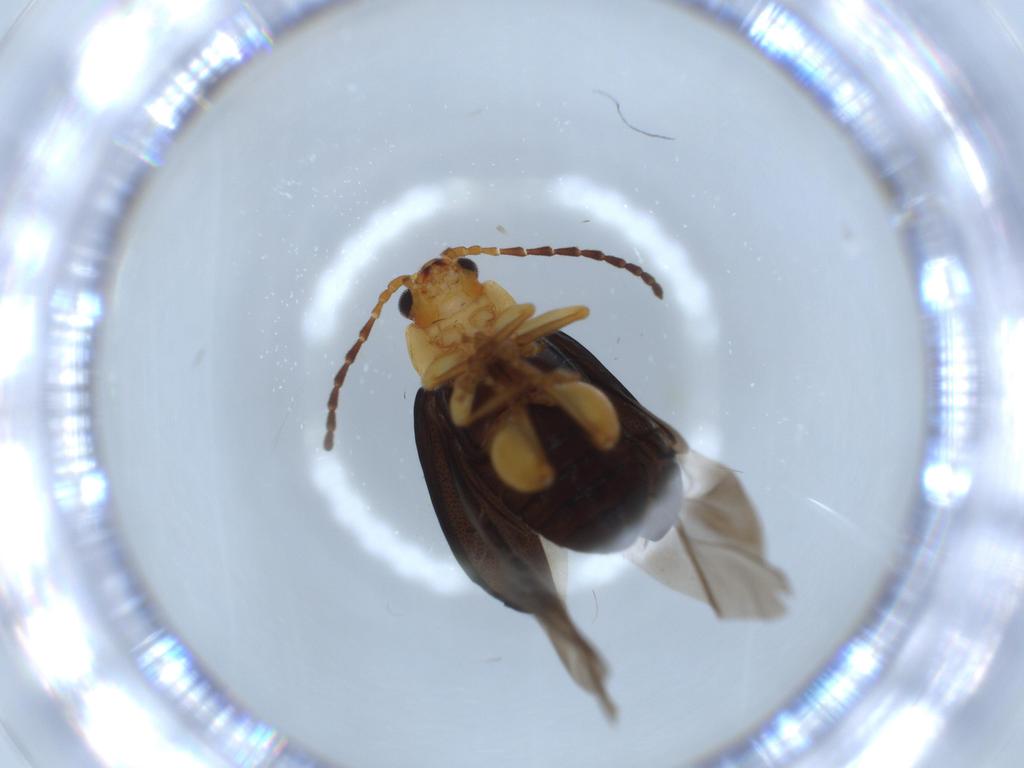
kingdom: Animalia
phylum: Arthropoda
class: Insecta
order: Coleoptera
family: Chrysomelidae
